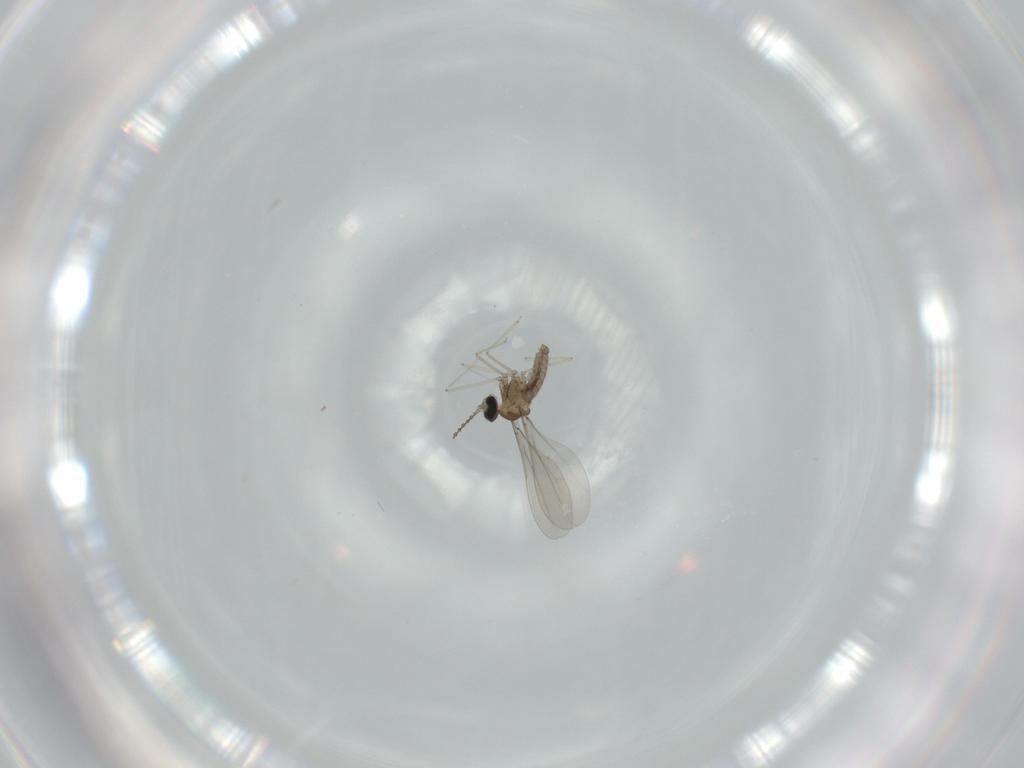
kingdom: Animalia
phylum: Arthropoda
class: Insecta
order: Diptera
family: Cecidomyiidae
